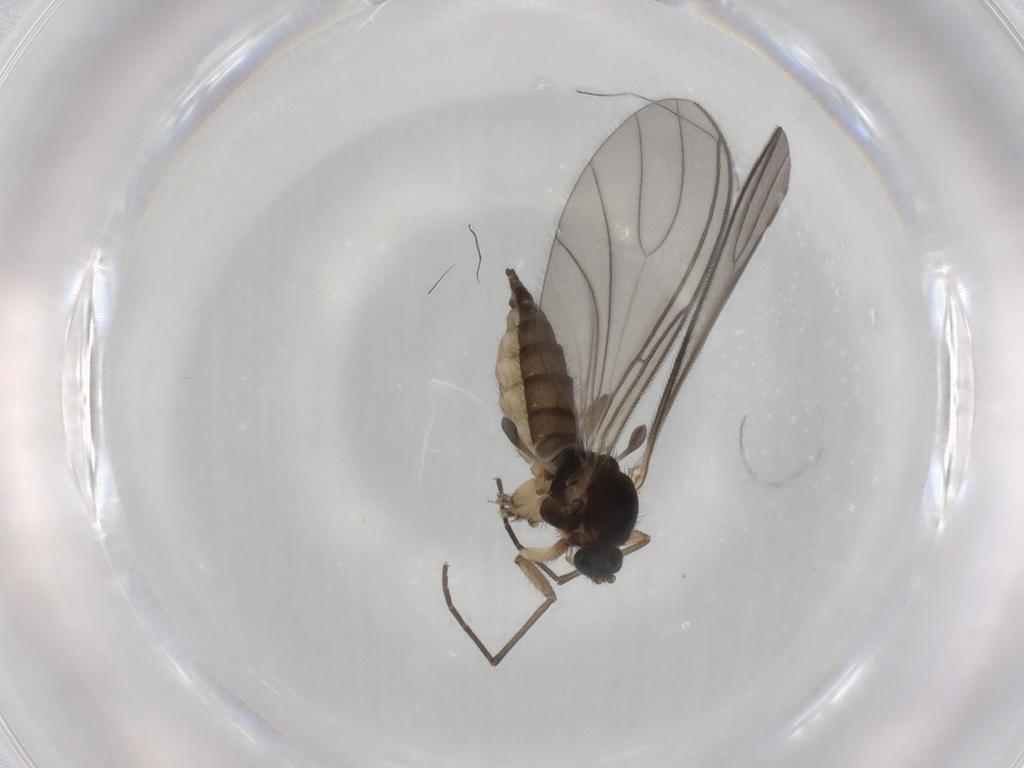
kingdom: Animalia
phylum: Arthropoda
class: Insecta
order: Diptera
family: Sciaridae
